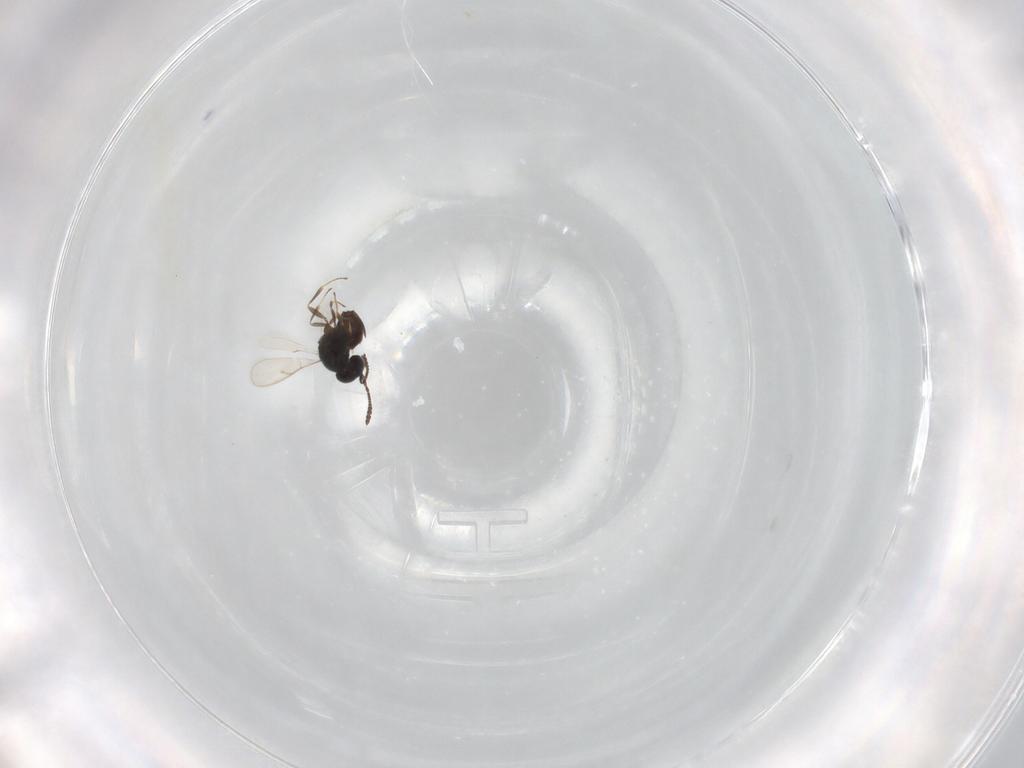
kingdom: Animalia
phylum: Arthropoda
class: Insecta
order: Hymenoptera
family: Scelionidae
